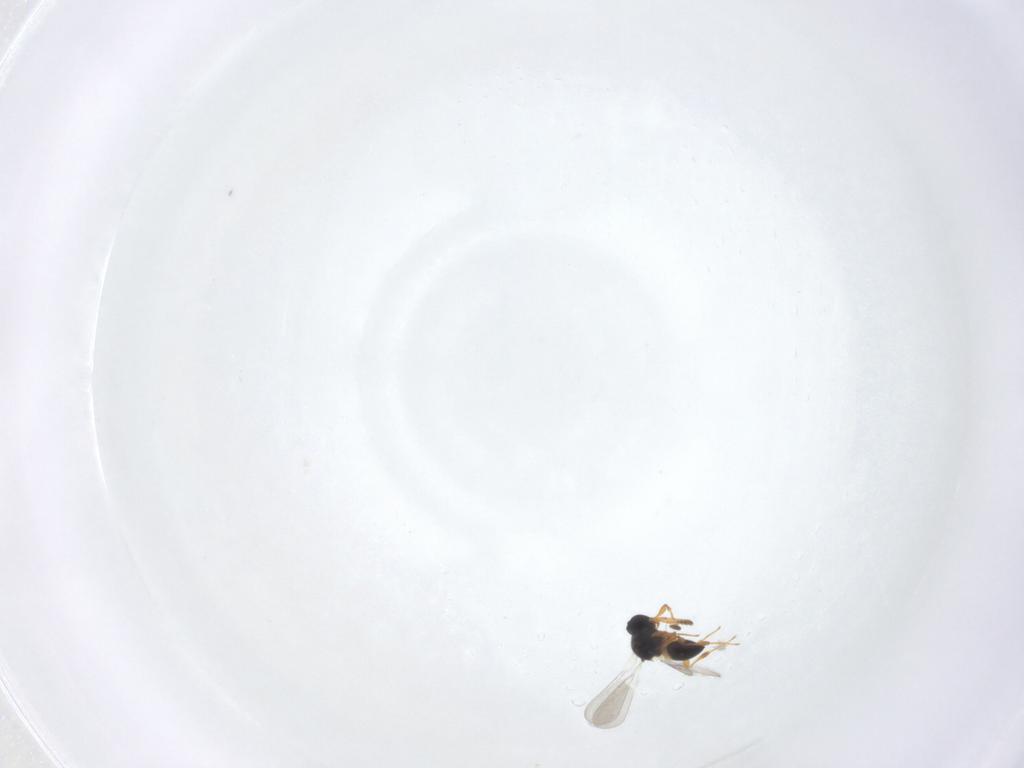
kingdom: Animalia
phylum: Arthropoda
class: Insecta
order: Hymenoptera
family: Platygastridae
